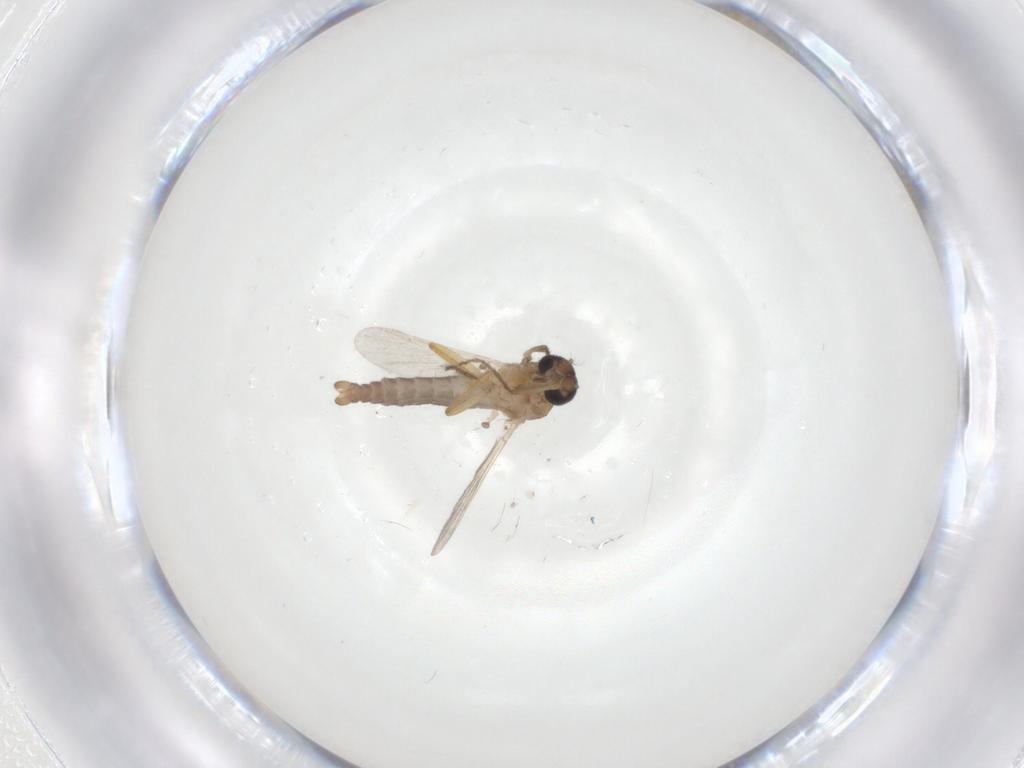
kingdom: Animalia
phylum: Arthropoda
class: Insecta
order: Diptera
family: Ceratopogonidae
